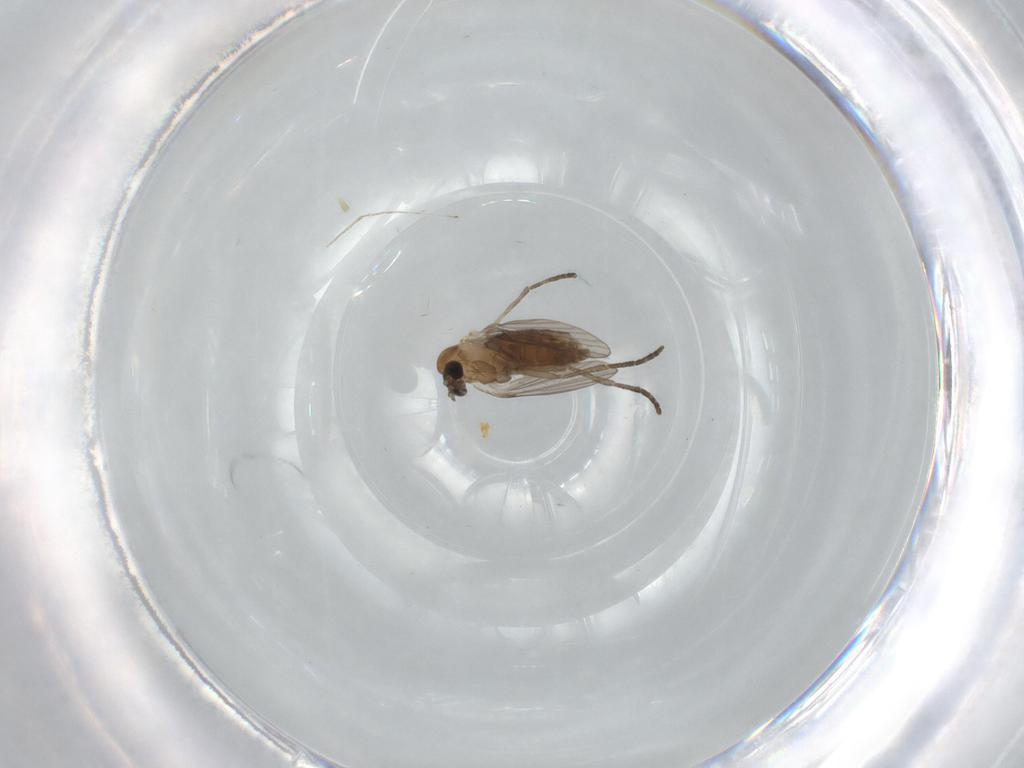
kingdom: Animalia
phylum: Arthropoda
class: Insecta
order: Diptera
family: Psychodidae
